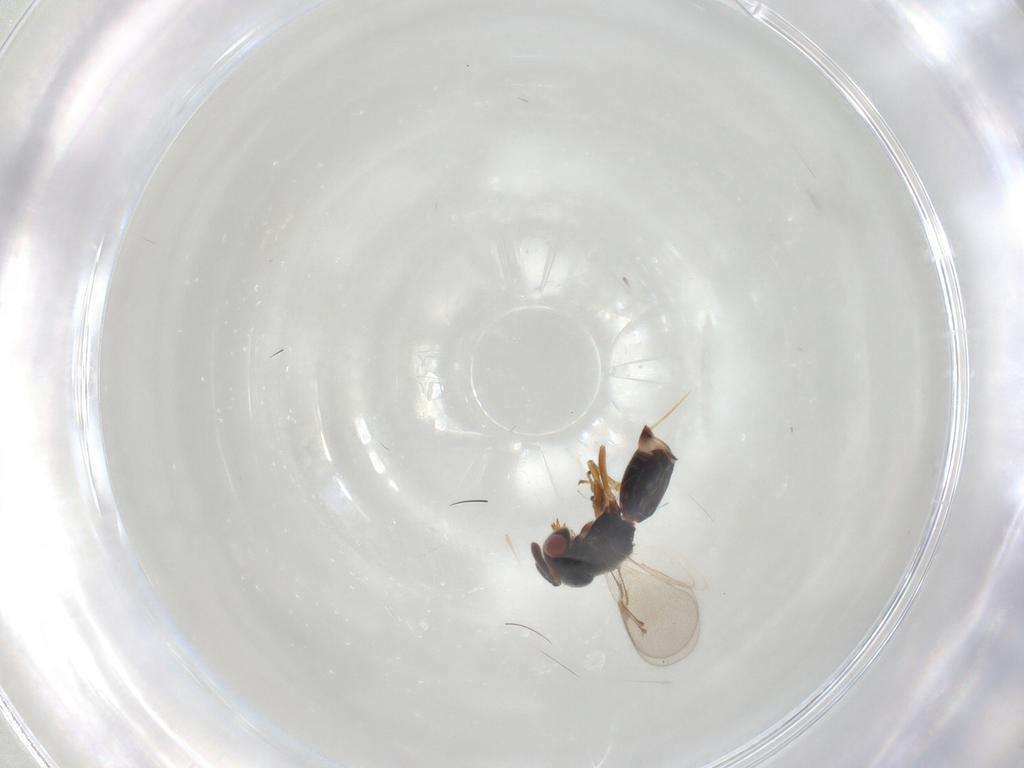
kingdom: Animalia
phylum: Arthropoda
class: Insecta
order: Hymenoptera
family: Pteromalidae
